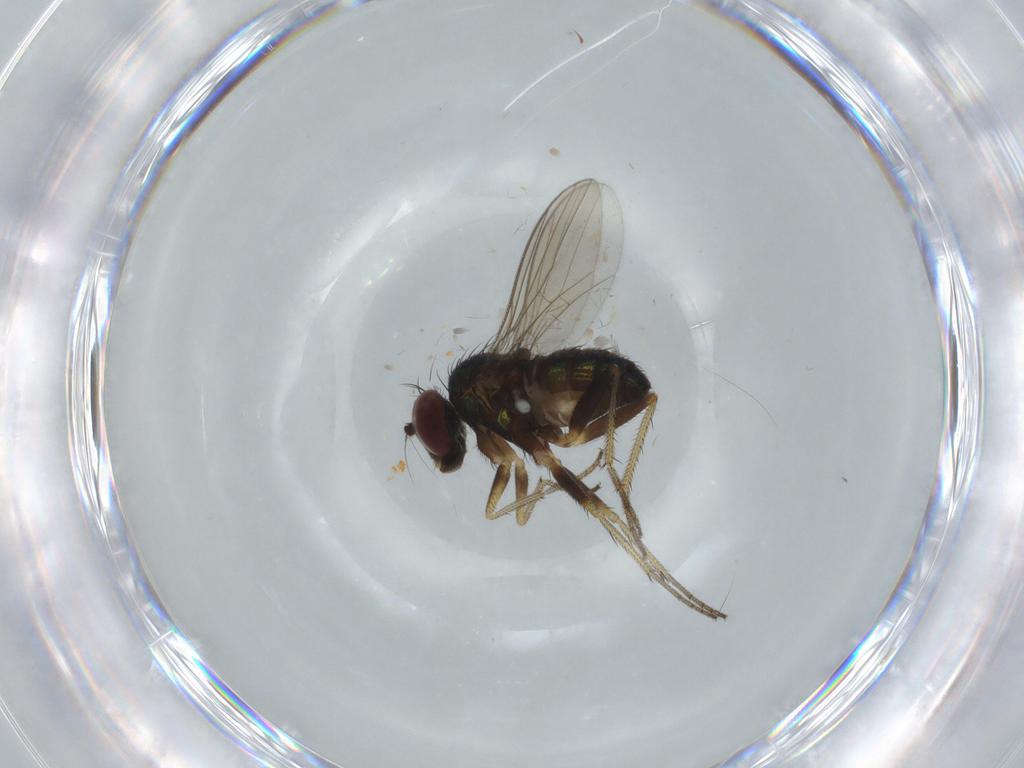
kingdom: Animalia
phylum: Arthropoda
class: Insecta
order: Diptera
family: Dolichopodidae
